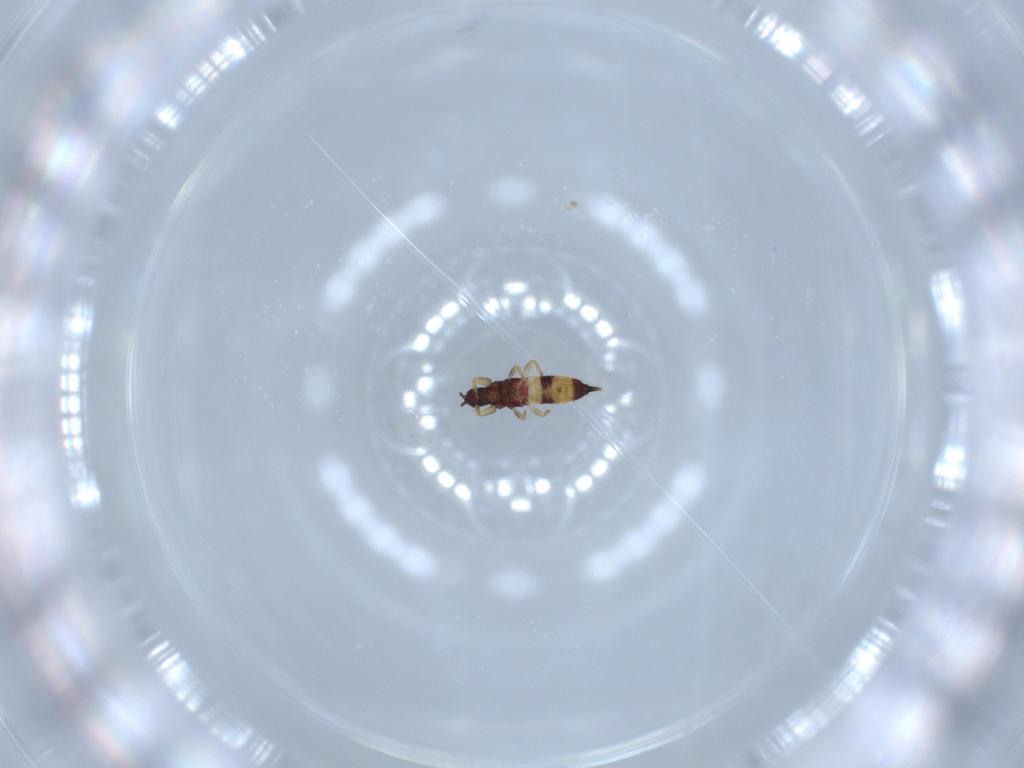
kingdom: Animalia
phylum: Arthropoda
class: Insecta
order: Thysanoptera
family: Phlaeothripidae
